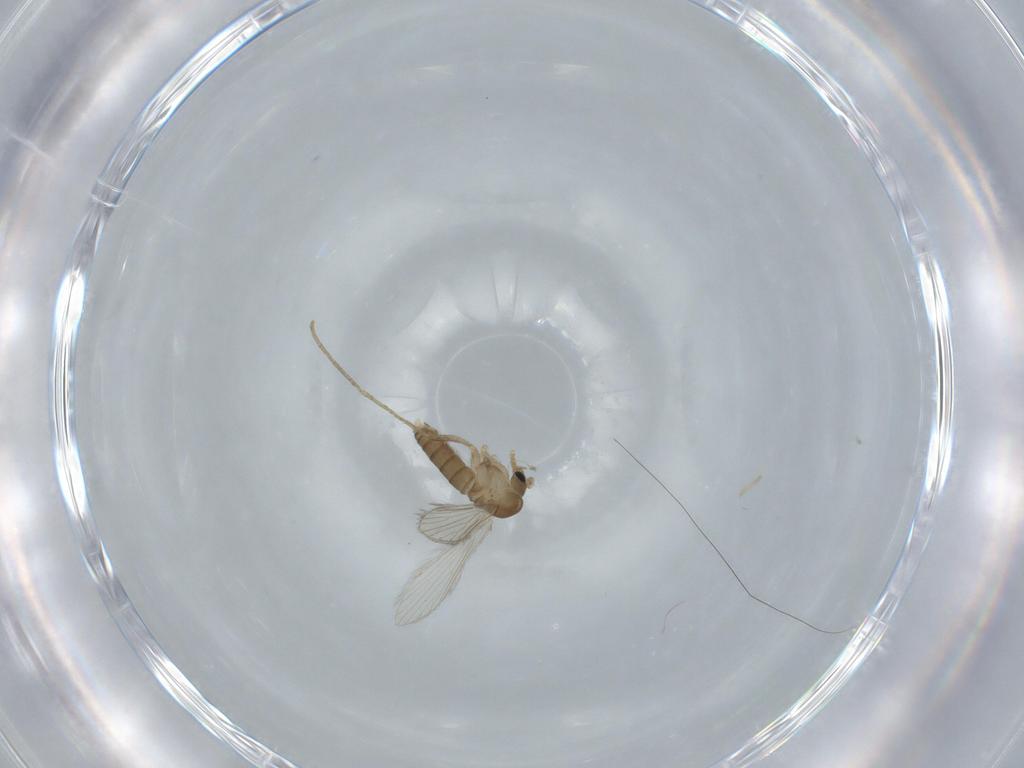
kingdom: Animalia
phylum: Arthropoda
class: Insecta
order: Diptera
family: Psychodidae
